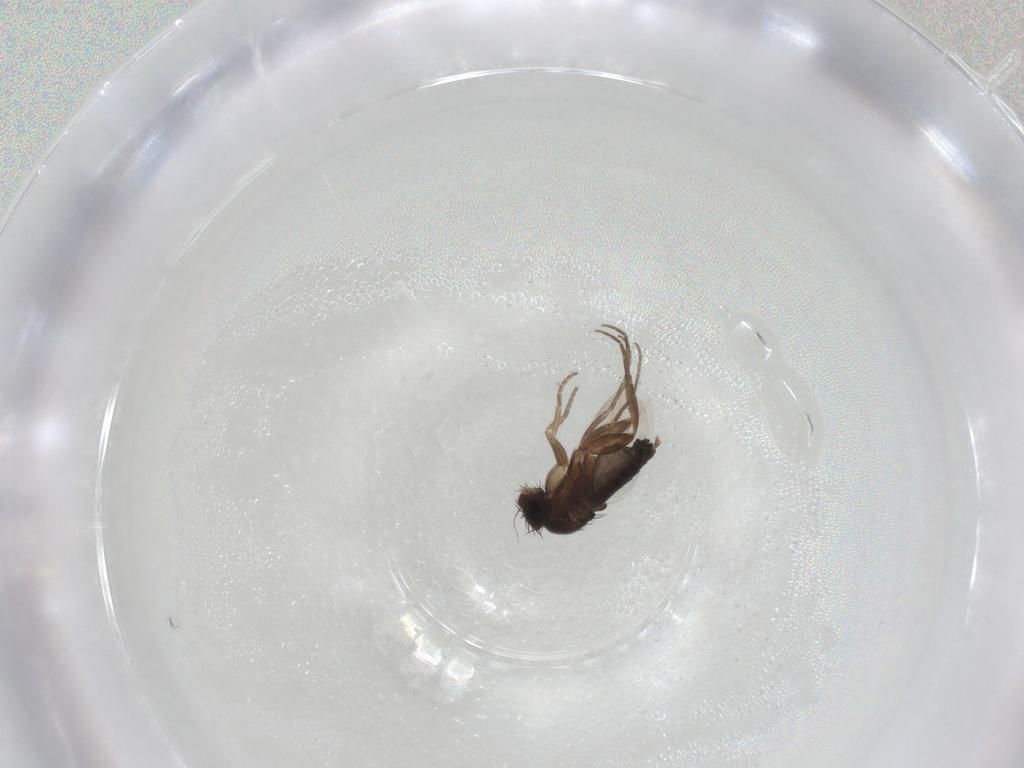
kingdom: Animalia
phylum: Arthropoda
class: Insecta
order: Diptera
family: Phoridae
